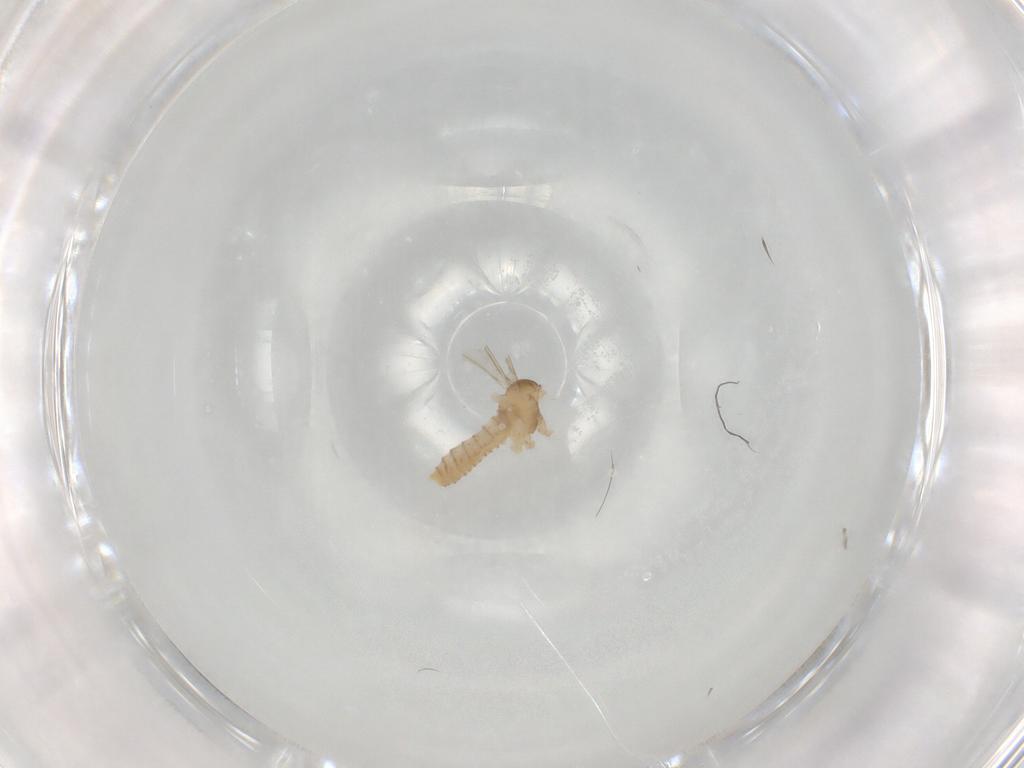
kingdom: Animalia
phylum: Arthropoda
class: Insecta
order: Diptera
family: Cecidomyiidae
